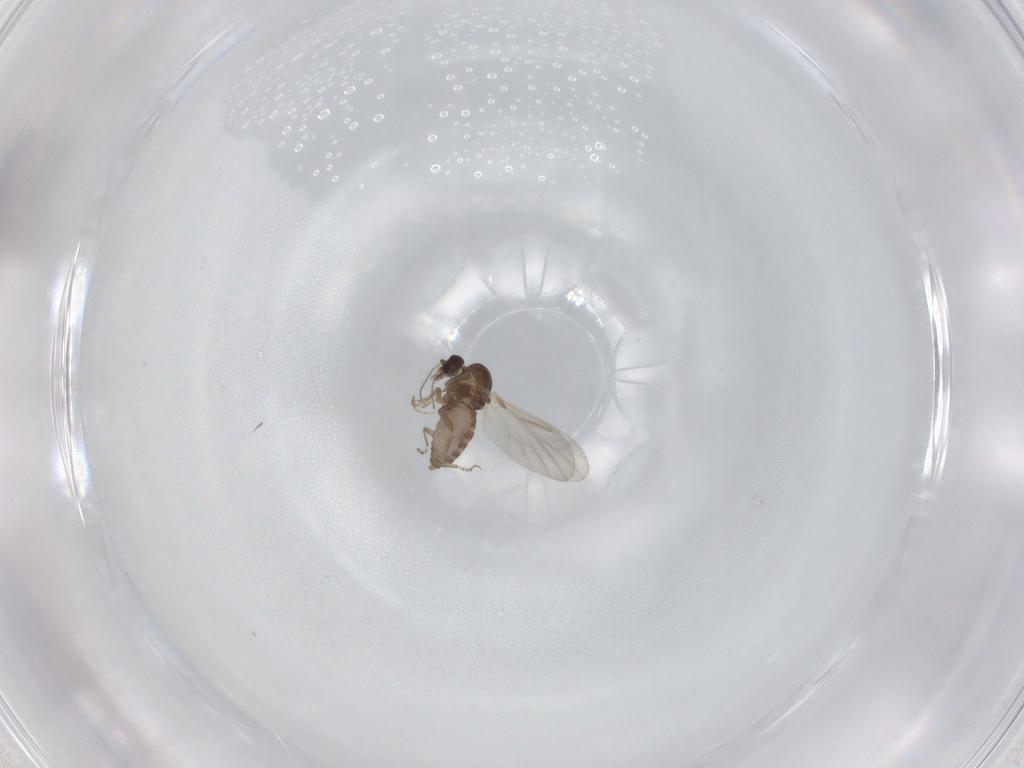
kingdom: Animalia
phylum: Arthropoda
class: Insecta
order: Diptera
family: Ceratopogonidae
